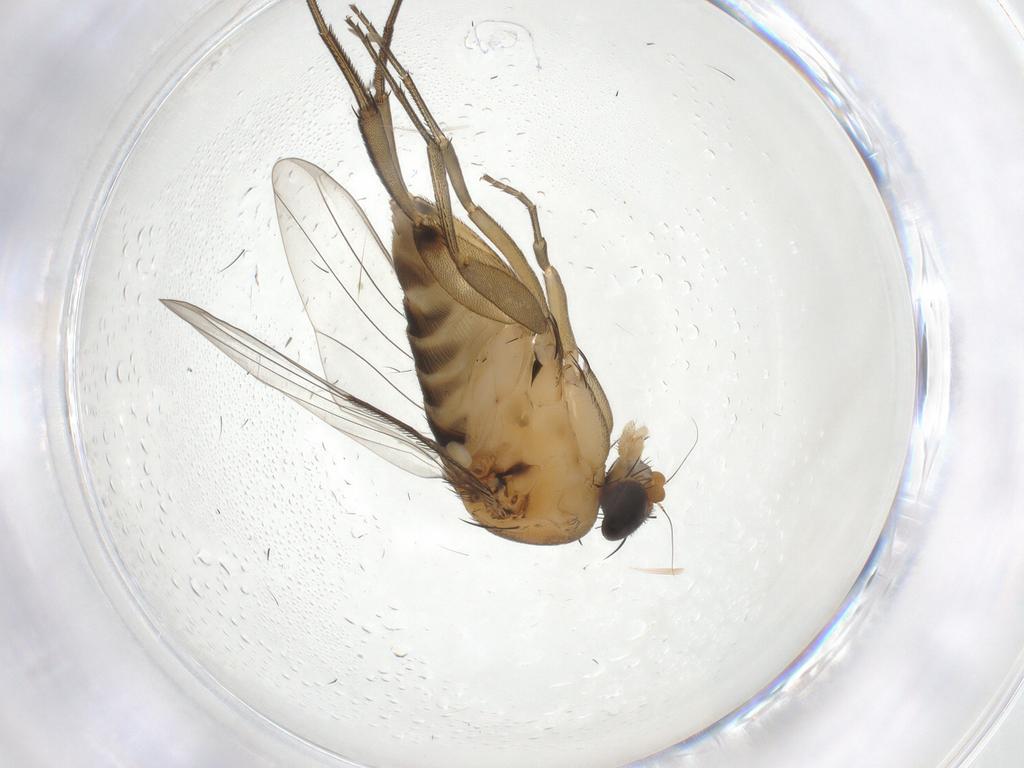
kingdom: Animalia
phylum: Arthropoda
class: Insecta
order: Diptera
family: Phoridae
